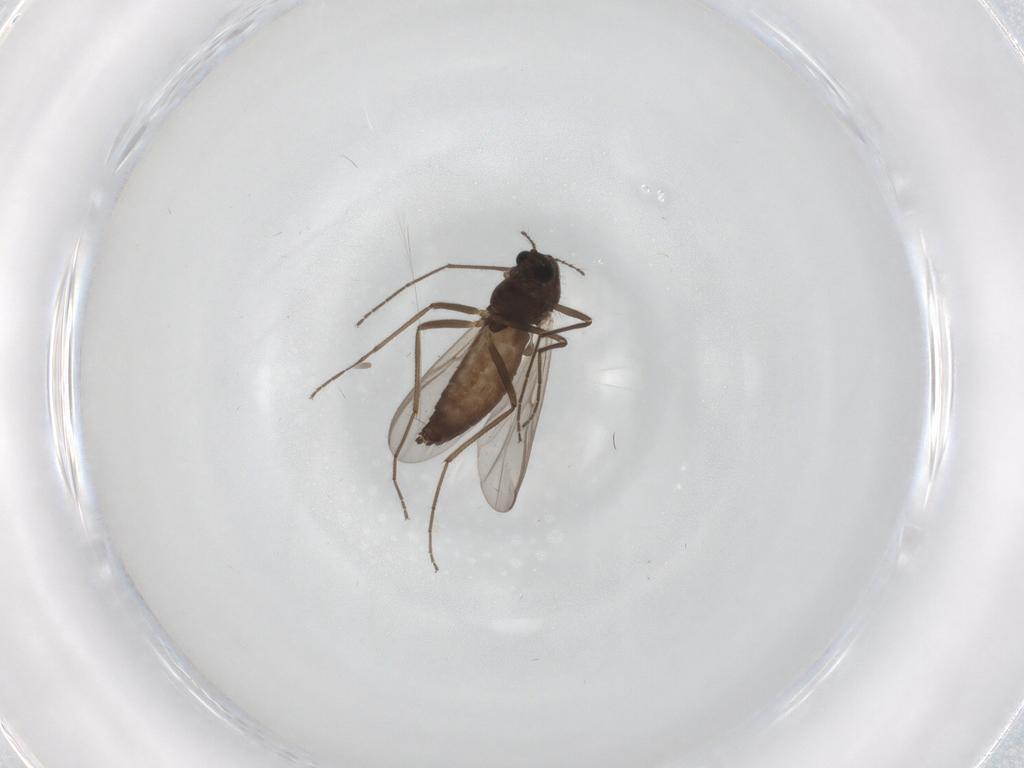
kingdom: Animalia
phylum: Arthropoda
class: Insecta
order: Diptera
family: Chironomidae
